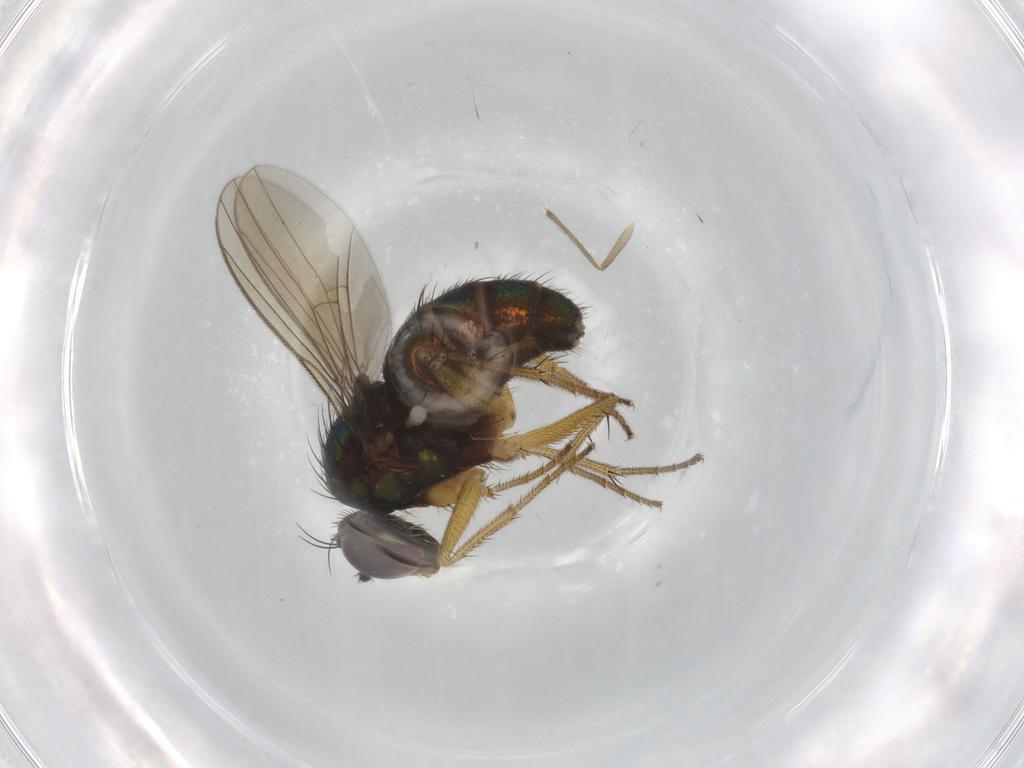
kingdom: Animalia
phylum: Arthropoda
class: Insecta
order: Diptera
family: Dolichopodidae
